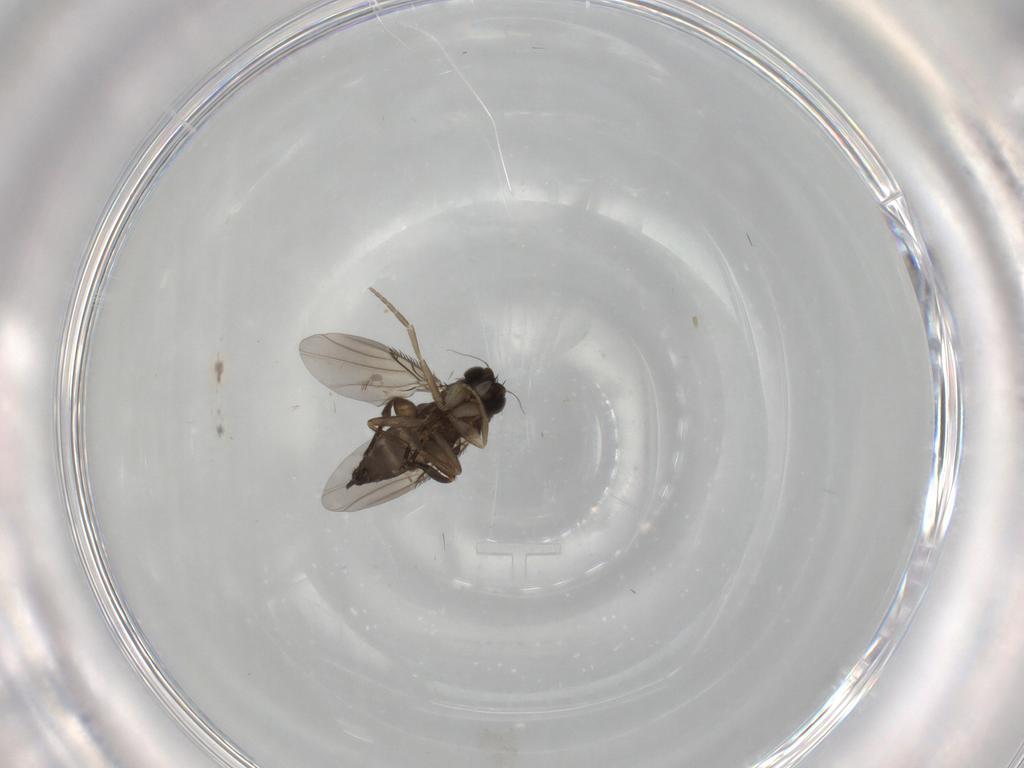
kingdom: Animalia
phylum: Arthropoda
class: Insecta
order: Diptera
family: Phoridae
